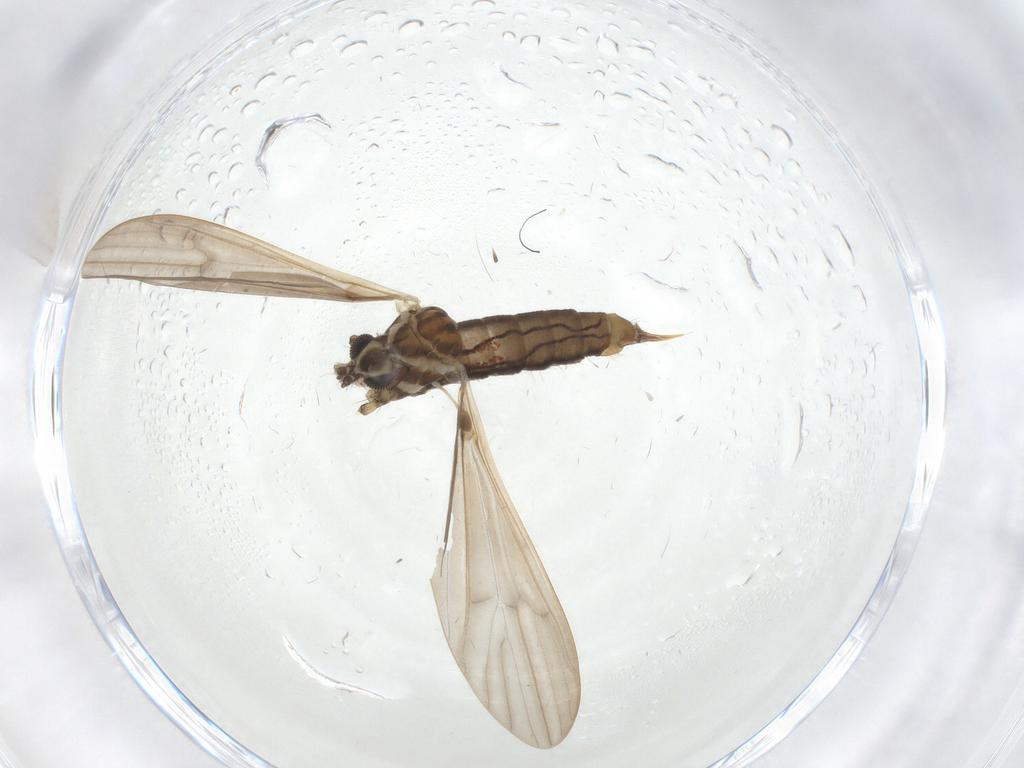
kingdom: Animalia
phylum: Arthropoda
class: Insecta
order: Diptera
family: Limoniidae
